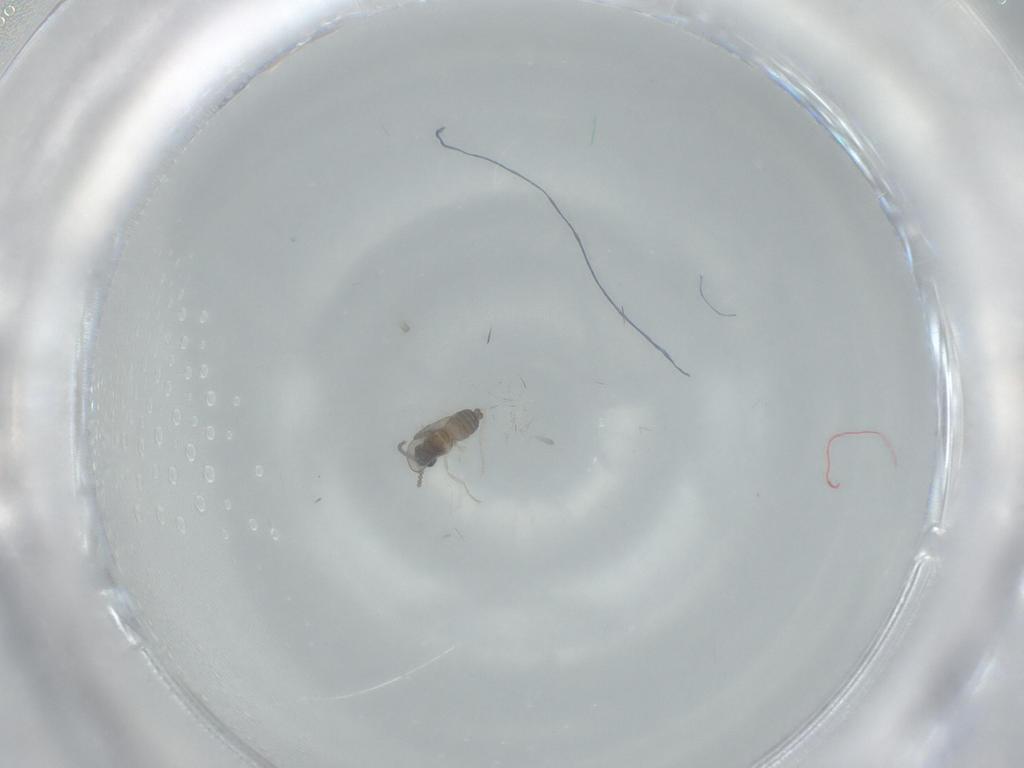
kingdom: Animalia
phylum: Arthropoda
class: Insecta
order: Diptera
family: Cecidomyiidae
